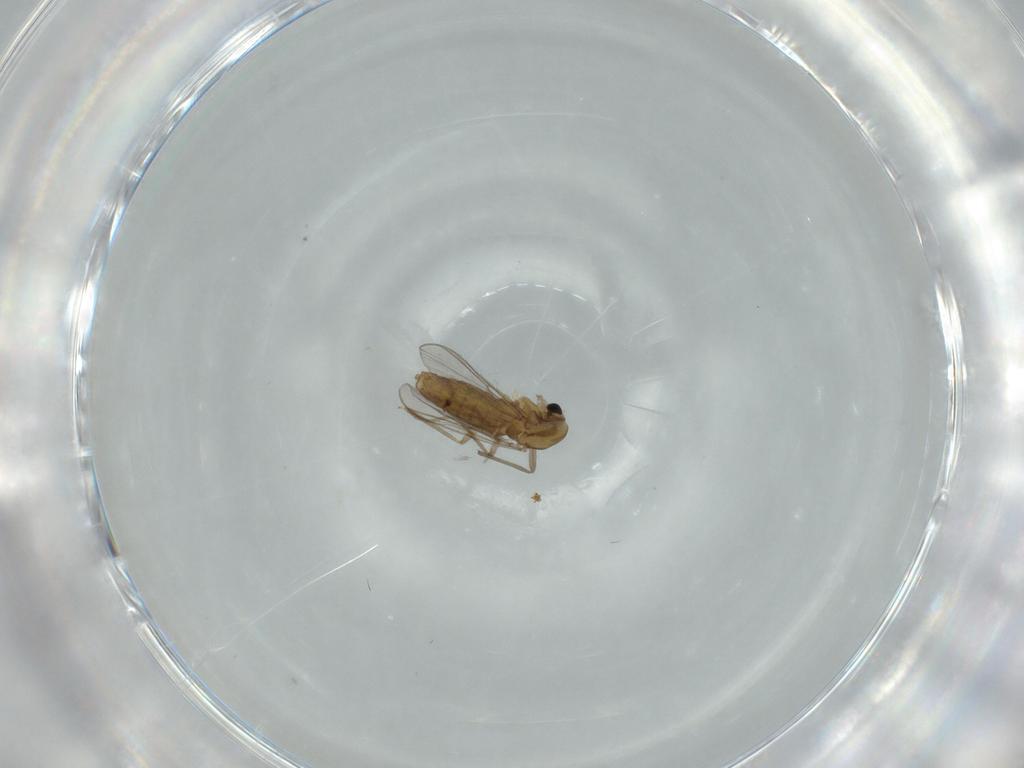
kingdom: Animalia
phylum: Arthropoda
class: Insecta
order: Diptera
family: Chironomidae
